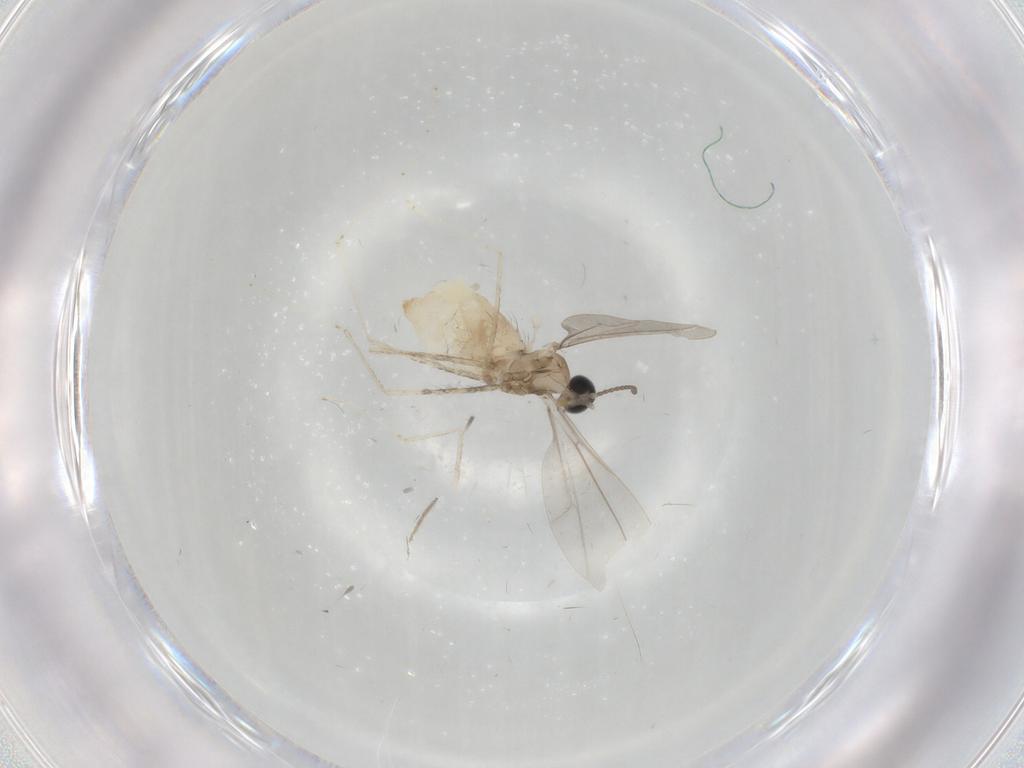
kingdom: Animalia
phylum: Arthropoda
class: Insecta
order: Diptera
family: Cecidomyiidae
